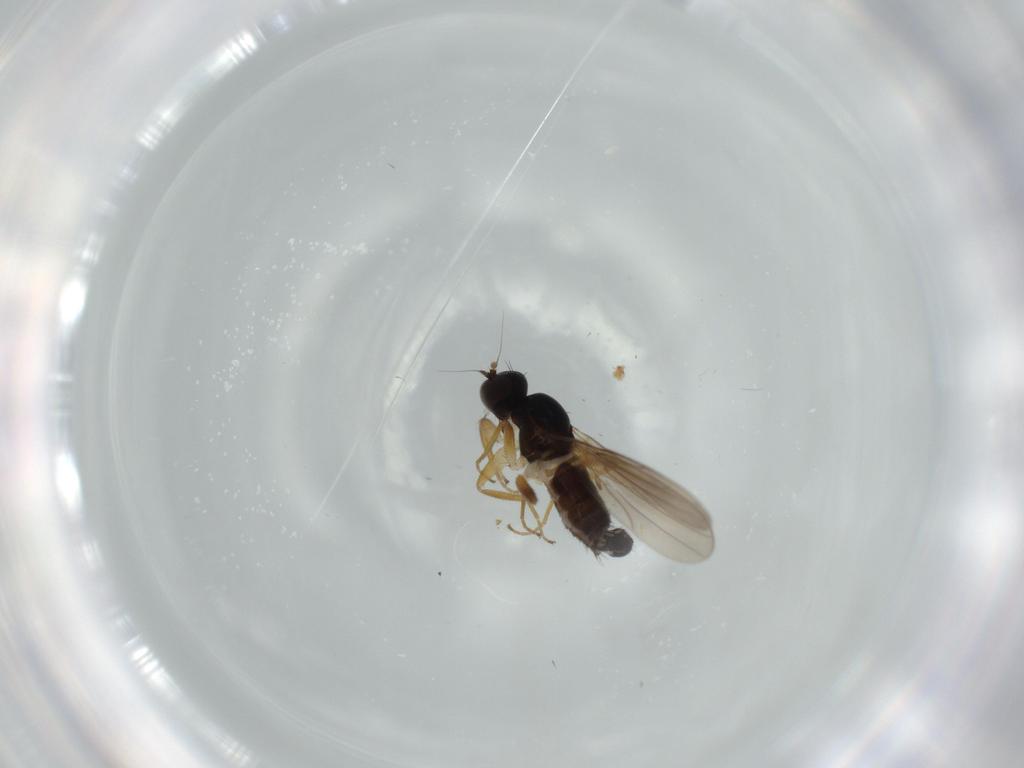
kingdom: Animalia
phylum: Arthropoda
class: Insecta
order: Diptera
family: Hybotidae
